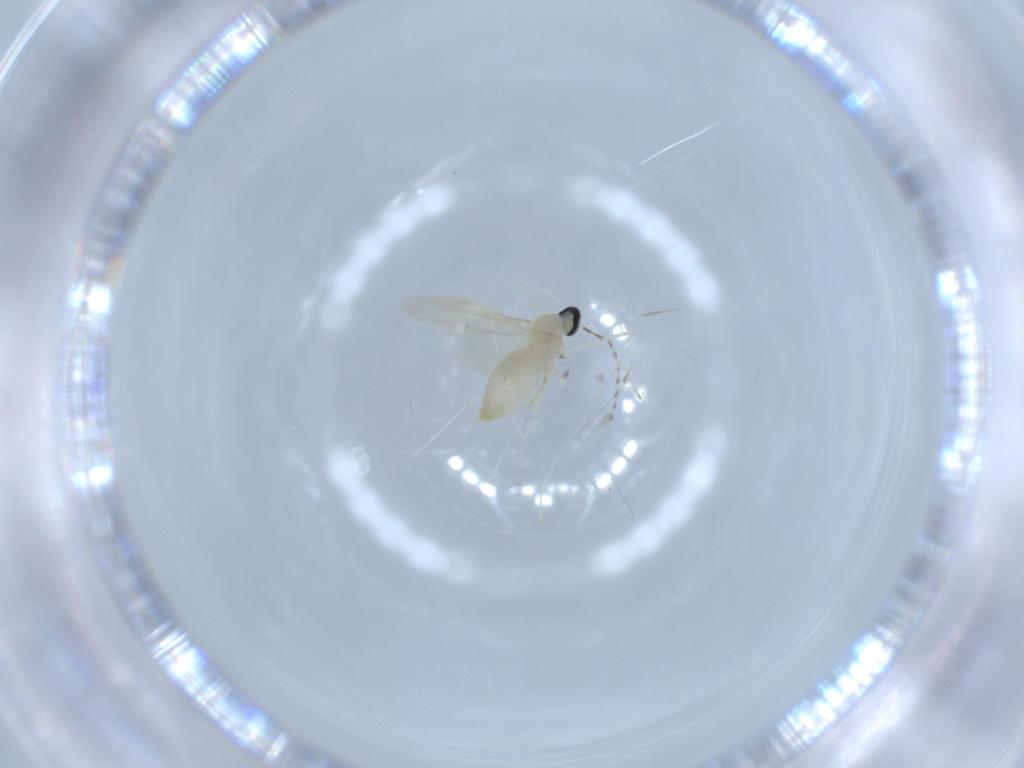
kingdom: Animalia
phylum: Arthropoda
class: Insecta
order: Diptera
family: Cecidomyiidae
